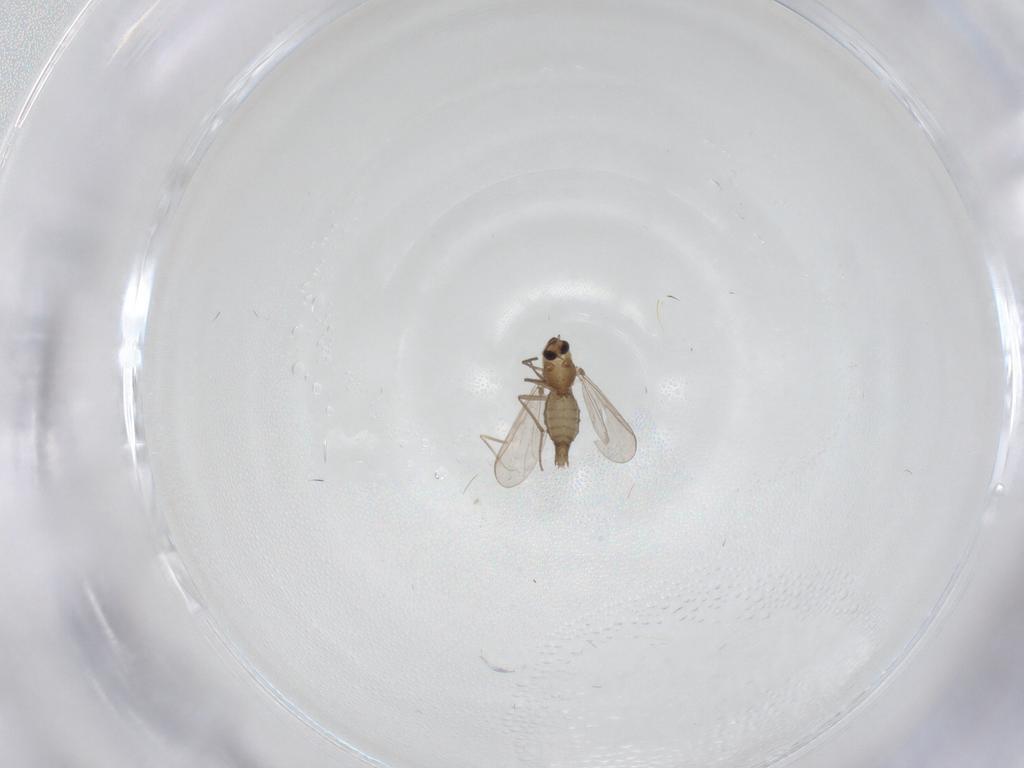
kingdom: Animalia
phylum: Arthropoda
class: Insecta
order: Diptera
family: Chironomidae
